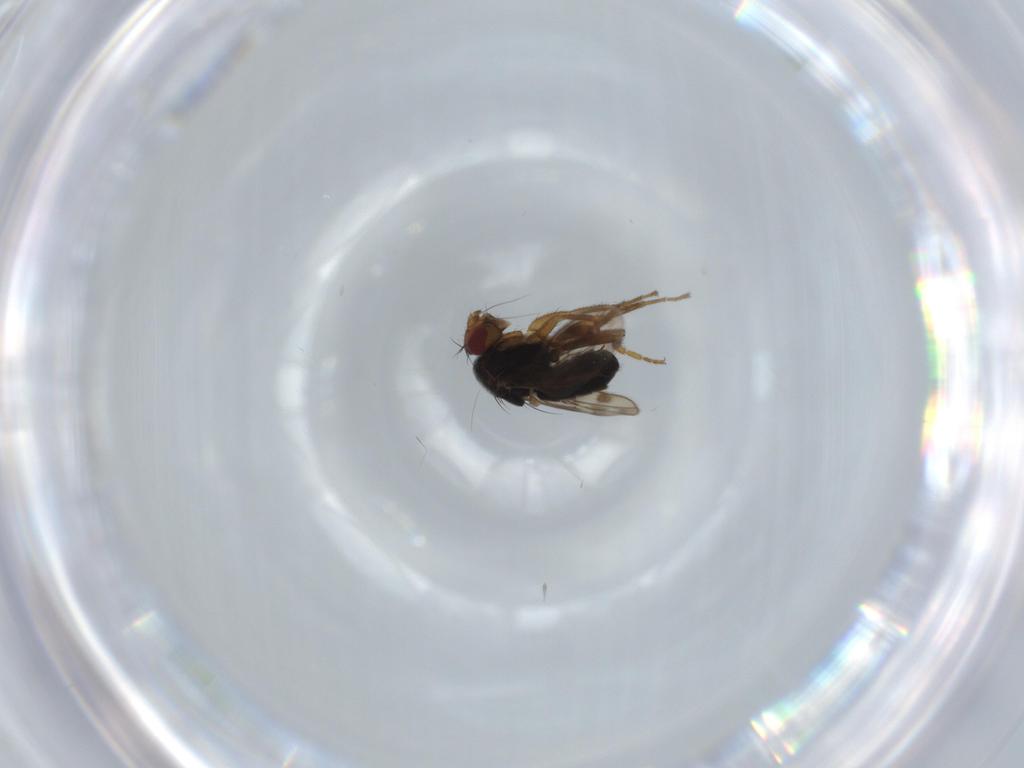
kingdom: Animalia
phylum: Arthropoda
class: Insecta
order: Diptera
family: Sphaeroceridae
